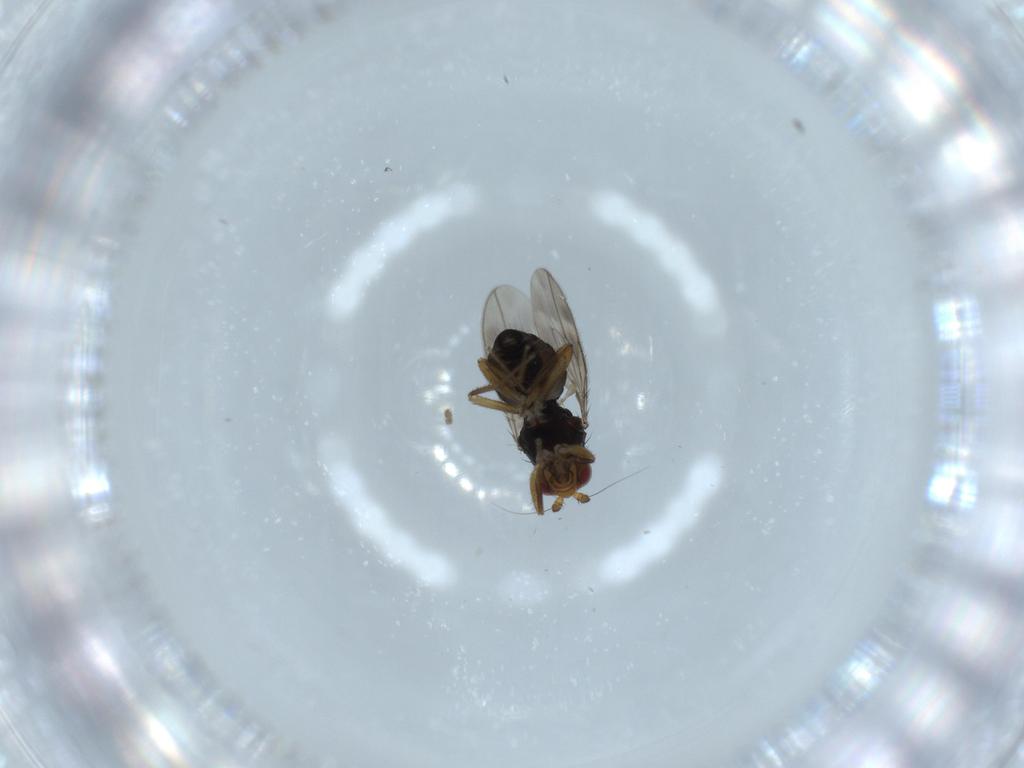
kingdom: Animalia
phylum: Arthropoda
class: Insecta
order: Diptera
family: Sphaeroceridae
